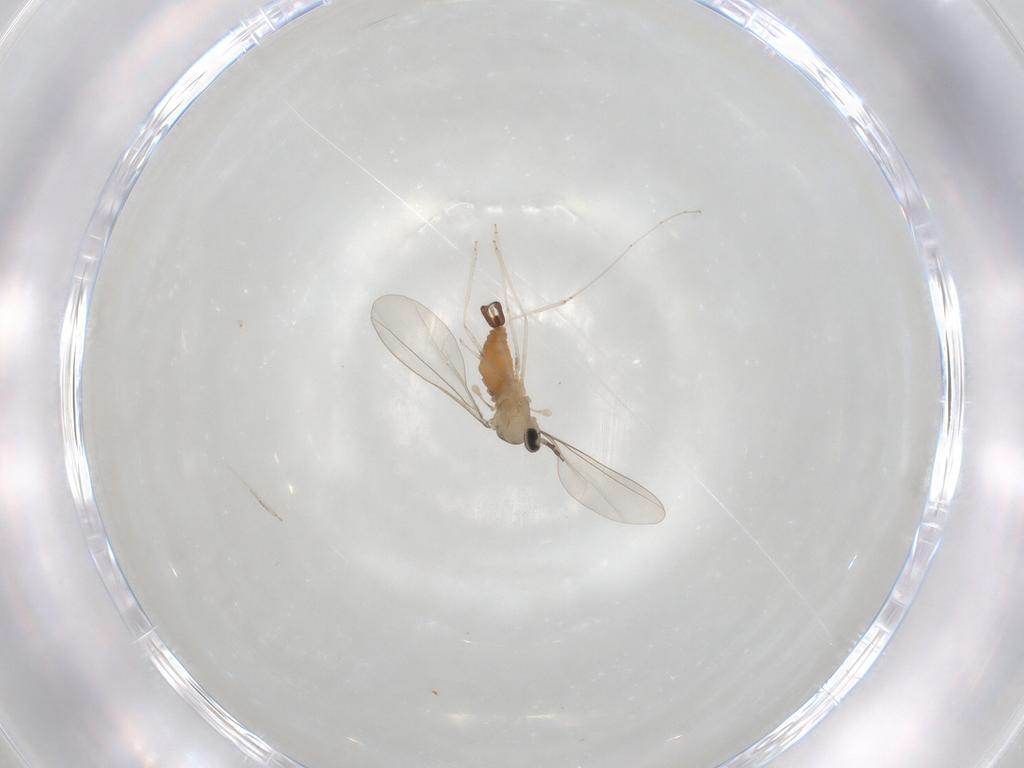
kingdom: Animalia
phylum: Arthropoda
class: Insecta
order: Diptera
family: Cecidomyiidae
